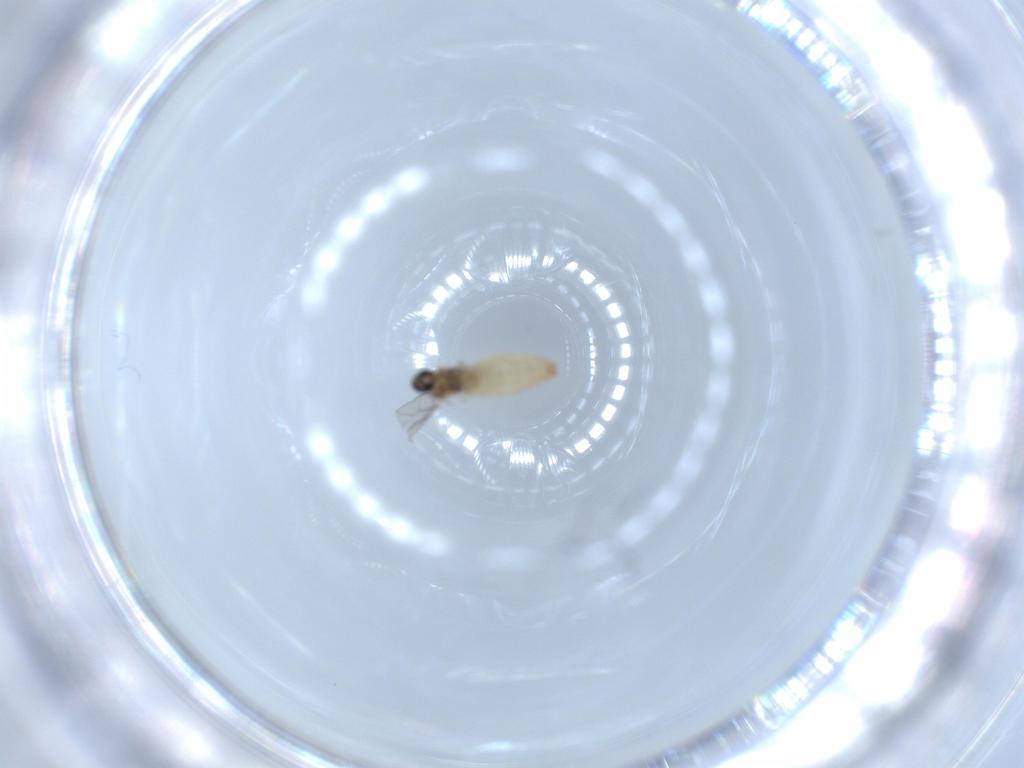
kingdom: Animalia
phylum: Arthropoda
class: Insecta
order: Diptera
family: Cecidomyiidae
